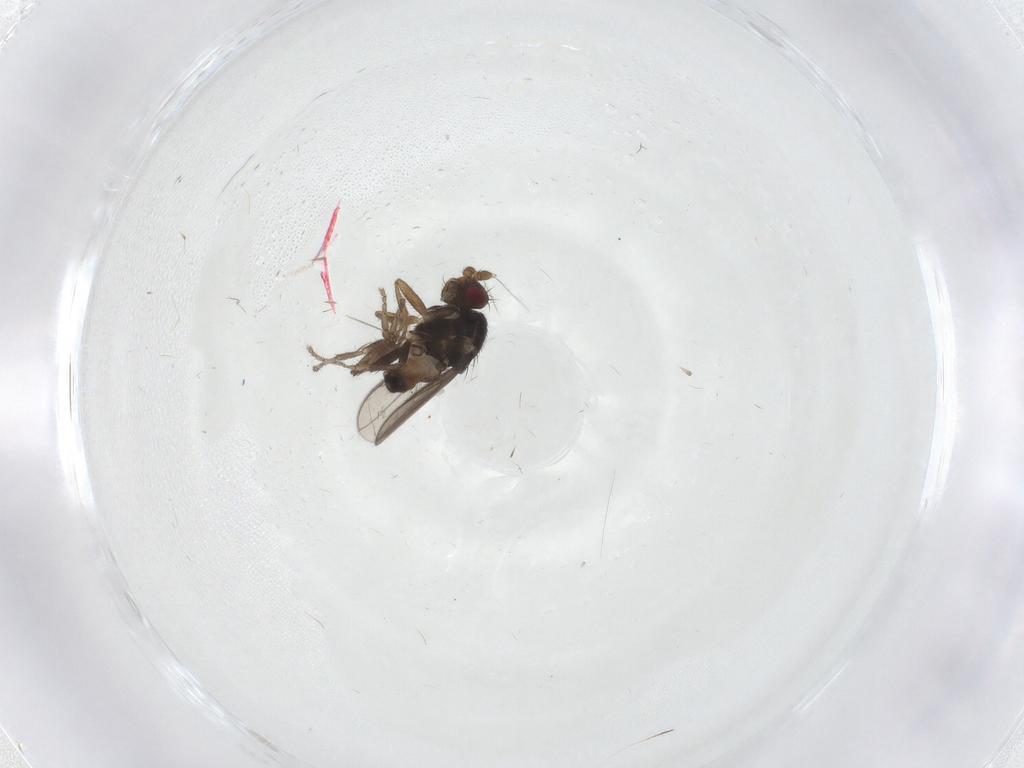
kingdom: Animalia
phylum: Arthropoda
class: Insecta
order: Diptera
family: Sphaeroceridae
